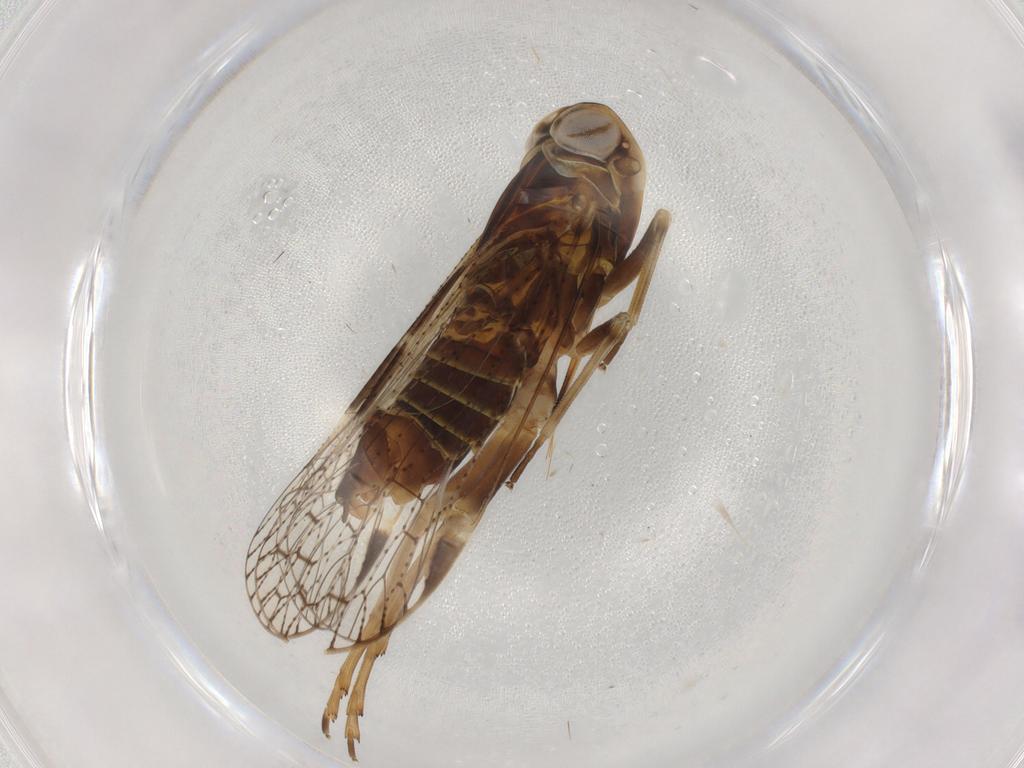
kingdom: Animalia
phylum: Arthropoda
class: Insecta
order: Hemiptera
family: Cixiidae
